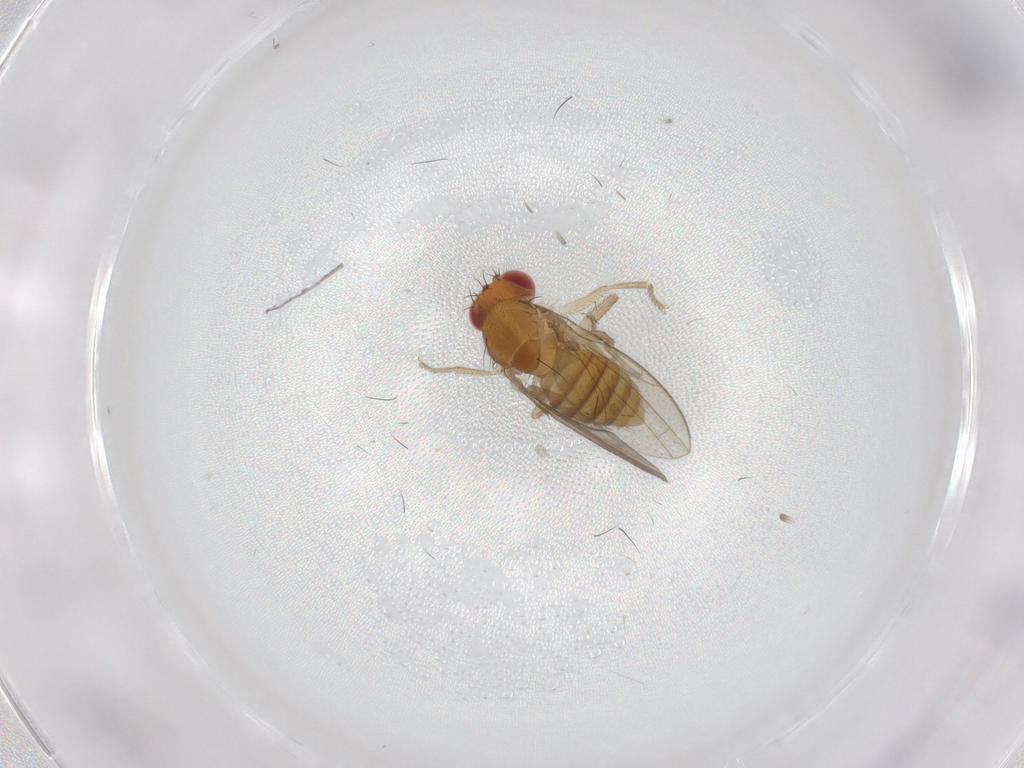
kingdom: Animalia
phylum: Arthropoda
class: Insecta
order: Diptera
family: Drosophilidae
